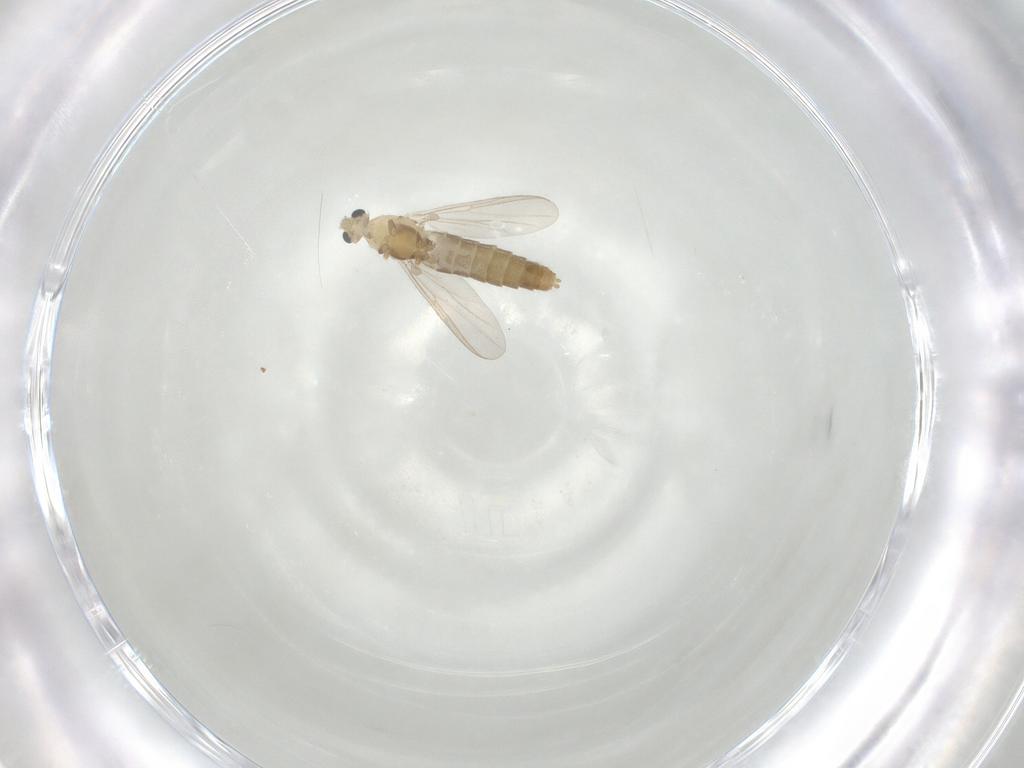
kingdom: Animalia
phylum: Arthropoda
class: Insecta
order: Diptera
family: Chironomidae
